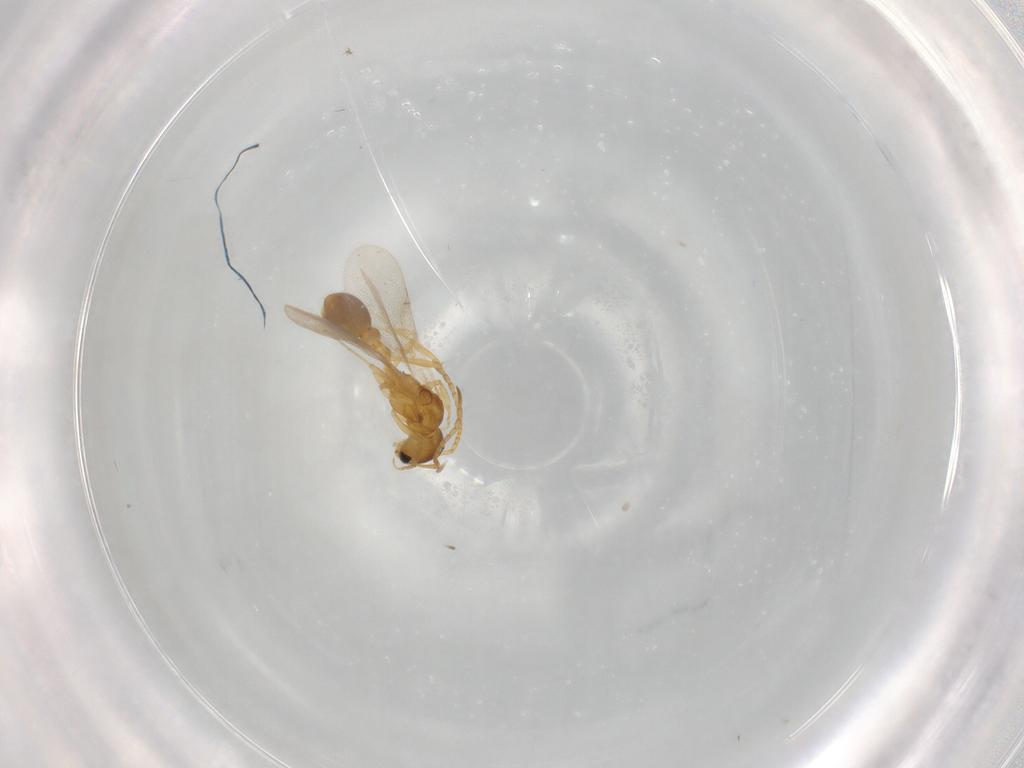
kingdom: Animalia
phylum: Arthropoda
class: Insecta
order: Hymenoptera
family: Formicidae
